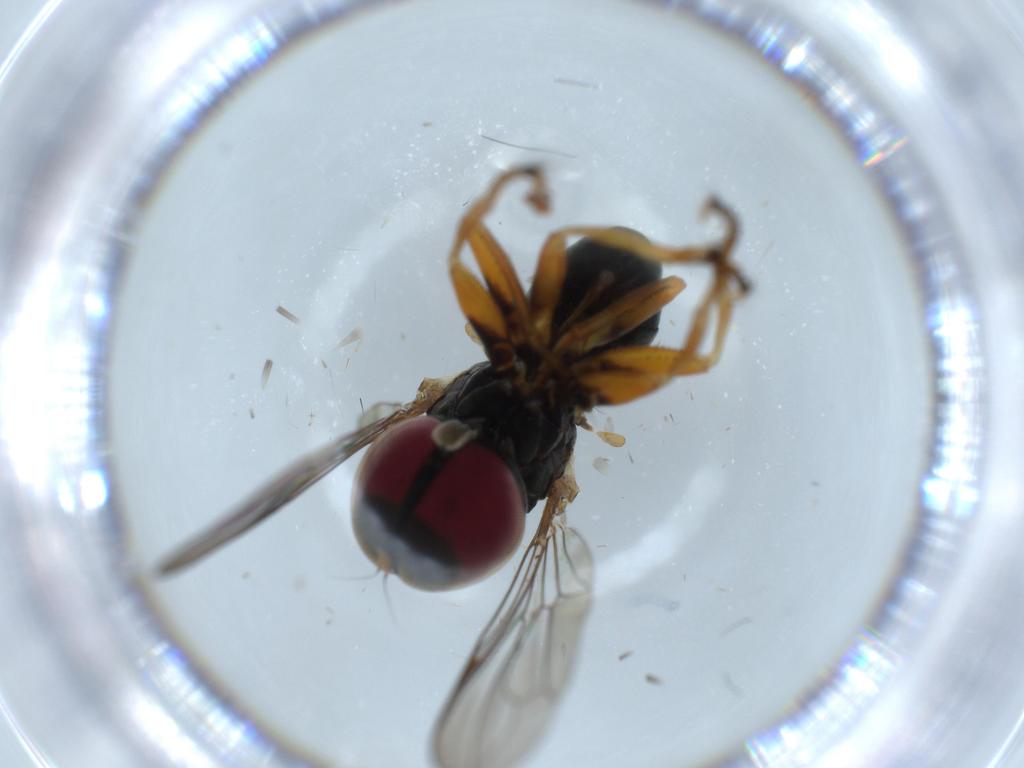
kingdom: Animalia
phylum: Arthropoda
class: Insecta
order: Diptera
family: Pipunculidae
